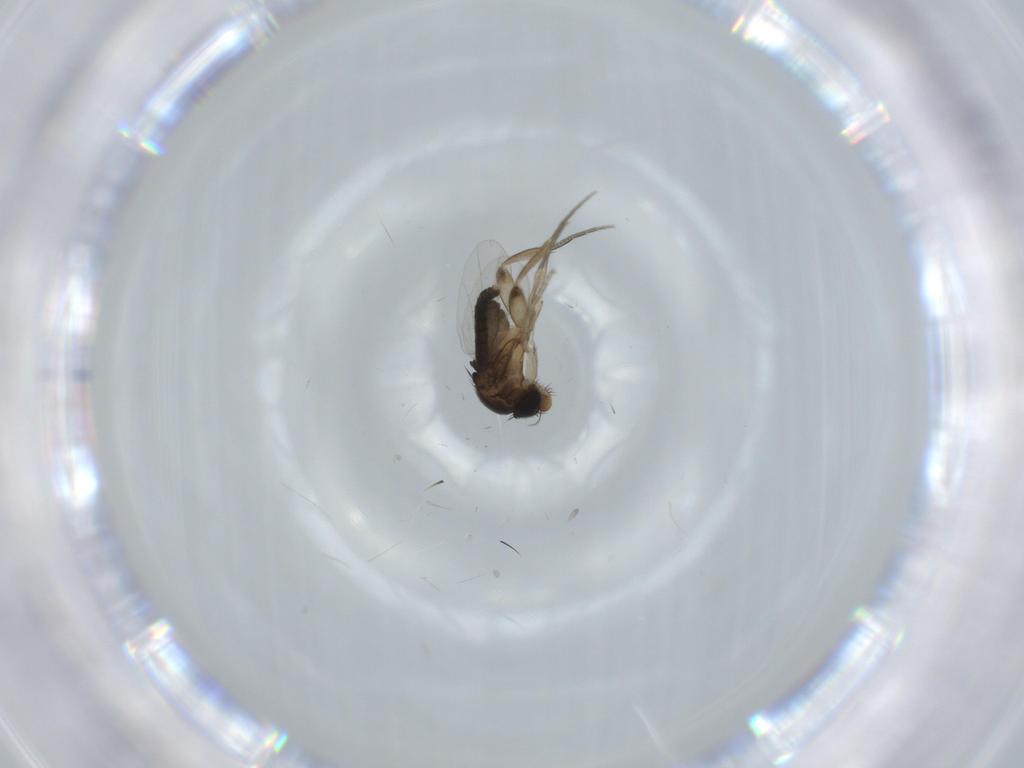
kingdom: Animalia
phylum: Arthropoda
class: Insecta
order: Diptera
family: Phoridae
